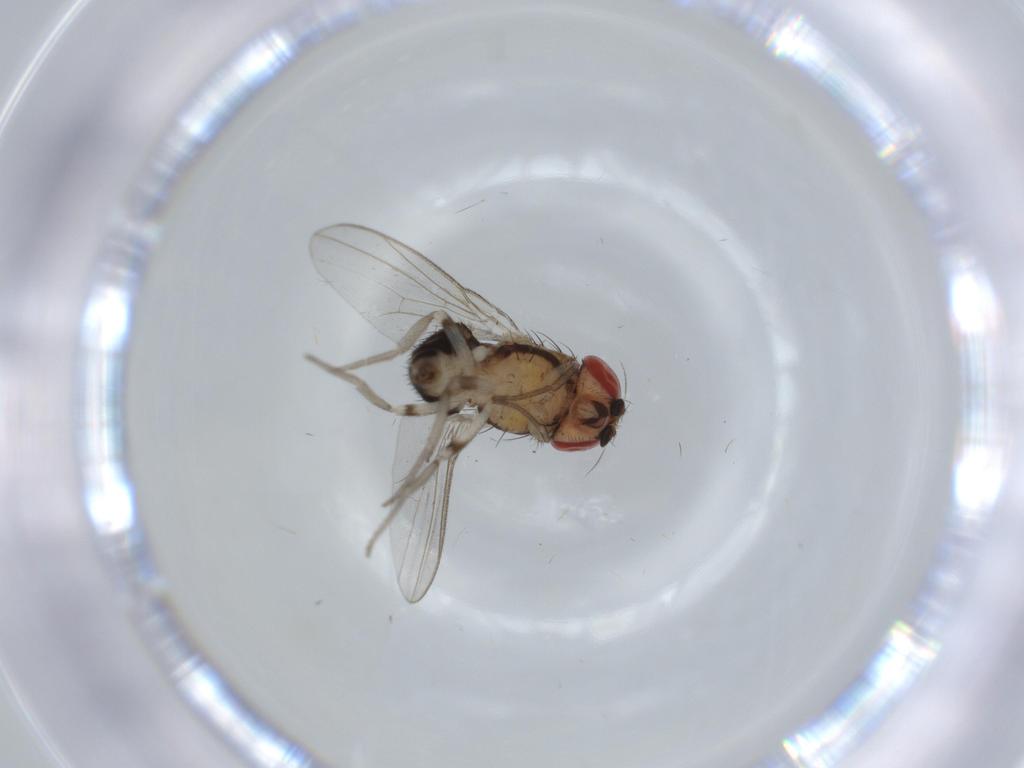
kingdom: Animalia
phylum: Arthropoda
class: Insecta
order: Diptera
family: Drosophilidae
